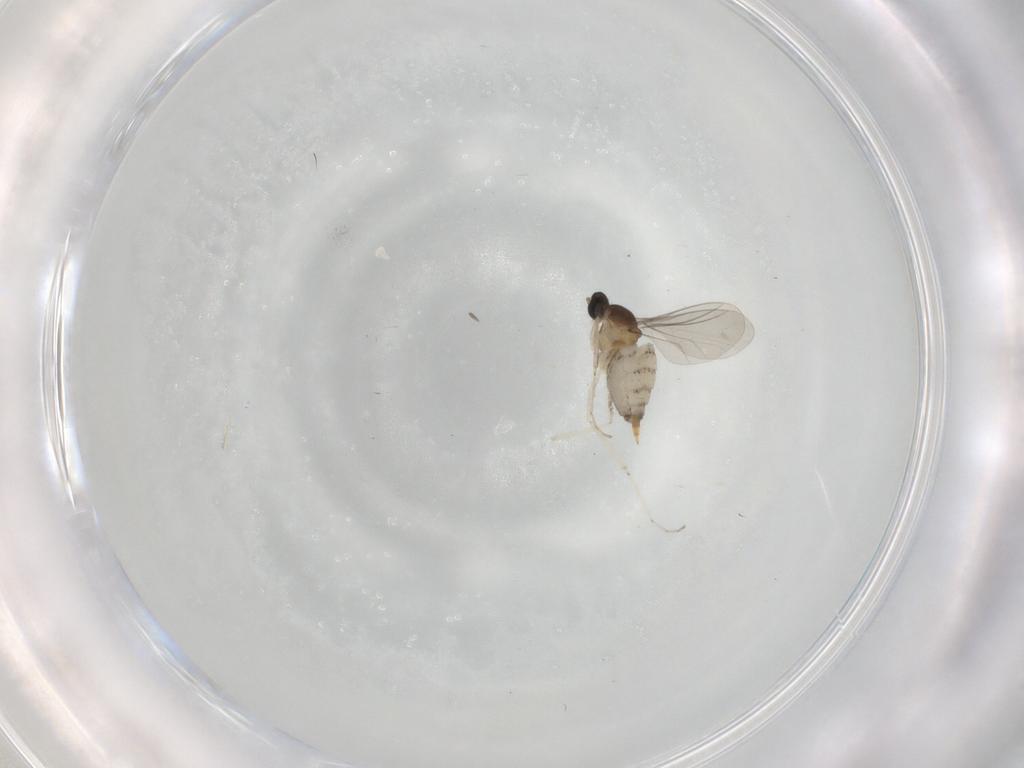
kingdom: Animalia
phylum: Arthropoda
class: Insecta
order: Diptera
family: Cecidomyiidae
